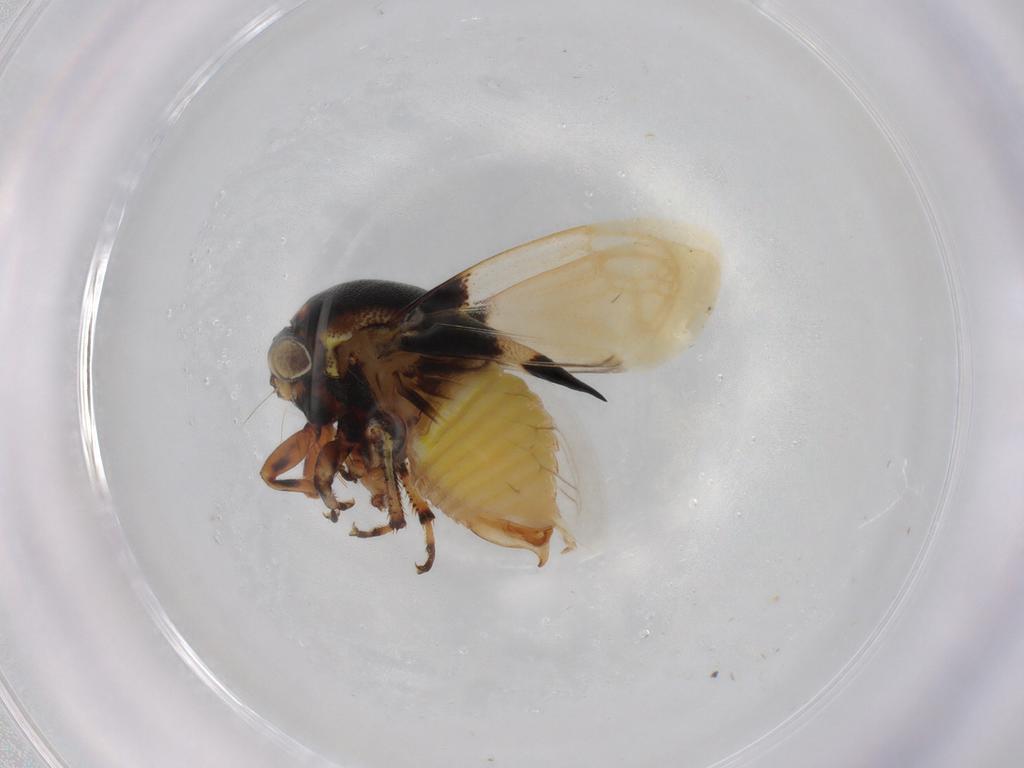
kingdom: Animalia
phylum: Arthropoda
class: Insecta
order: Hemiptera
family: Membracidae
